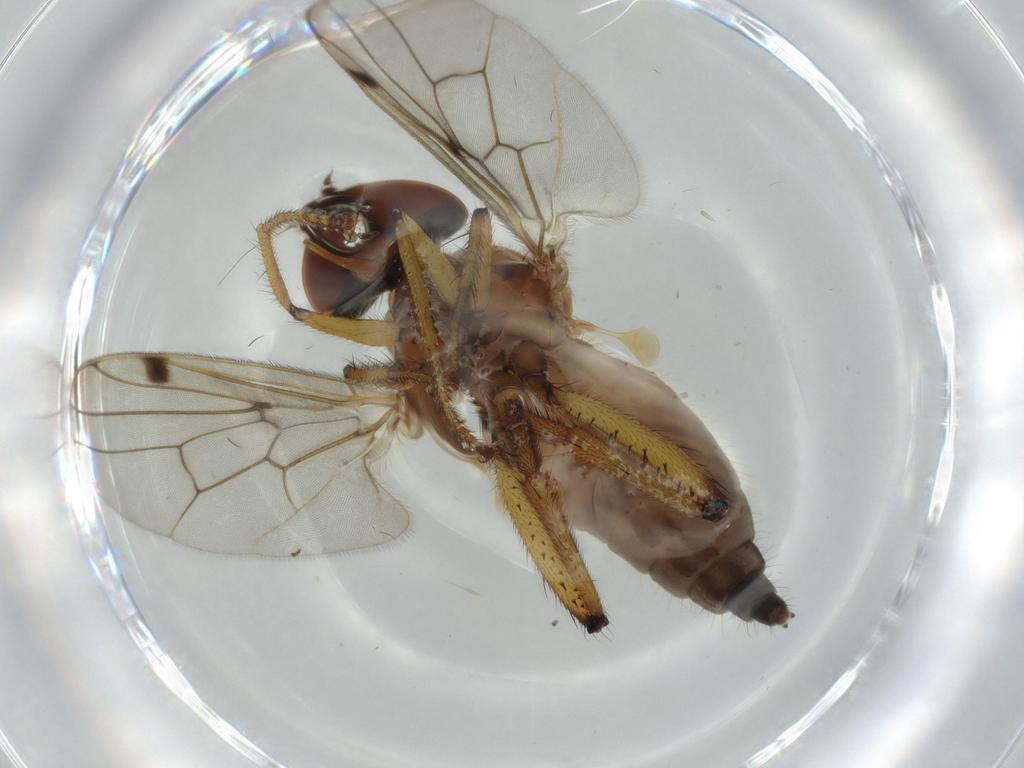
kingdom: Animalia
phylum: Arthropoda
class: Insecta
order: Diptera
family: Hybotidae
